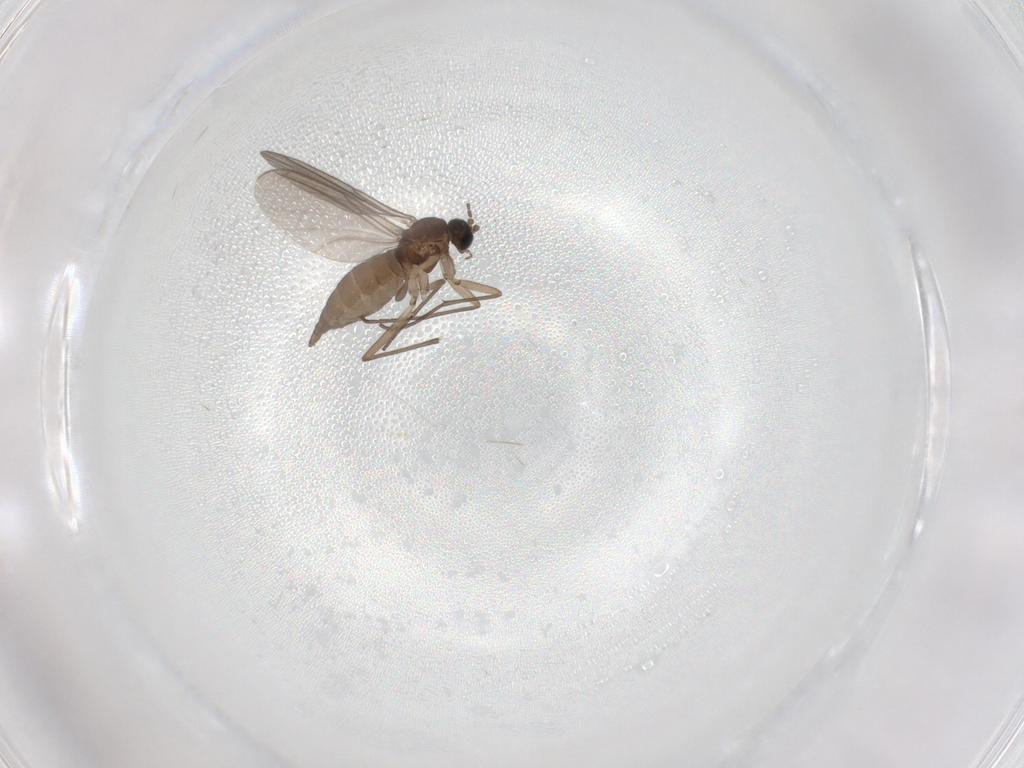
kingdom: Animalia
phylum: Arthropoda
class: Insecta
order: Diptera
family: Sciaridae
